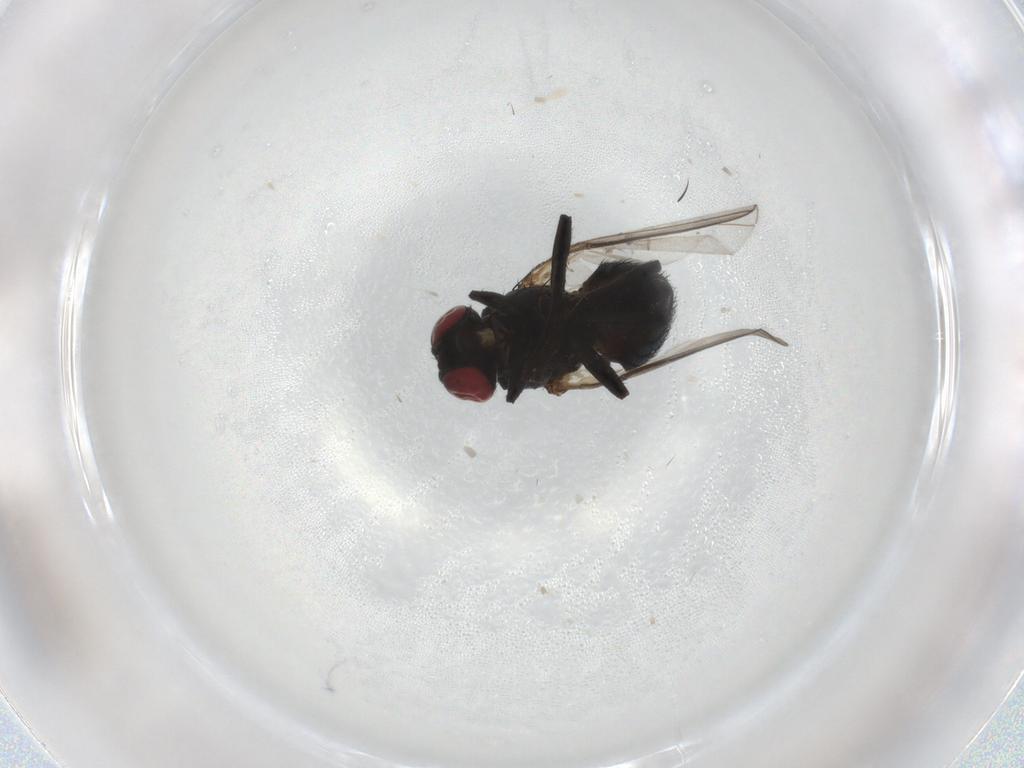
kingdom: Animalia
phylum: Arthropoda
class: Insecta
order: Diptera
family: Agromyzidae
